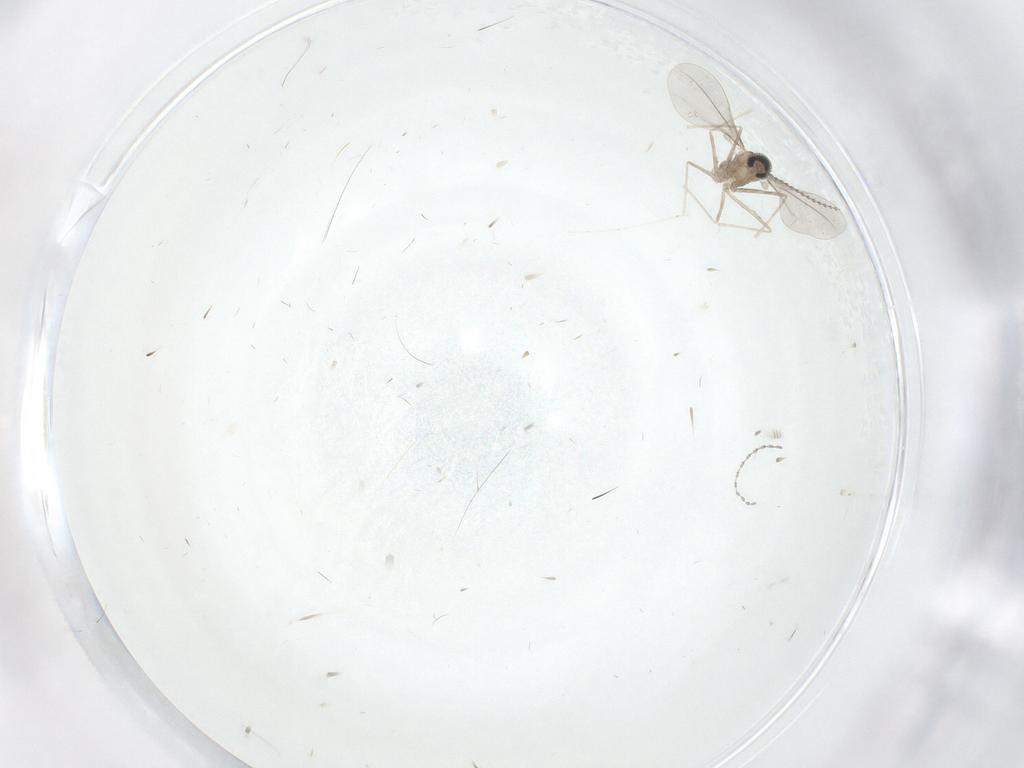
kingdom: Animalia
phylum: Arthropoda
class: Insecta
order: Diptera
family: Cecidomyiidae
